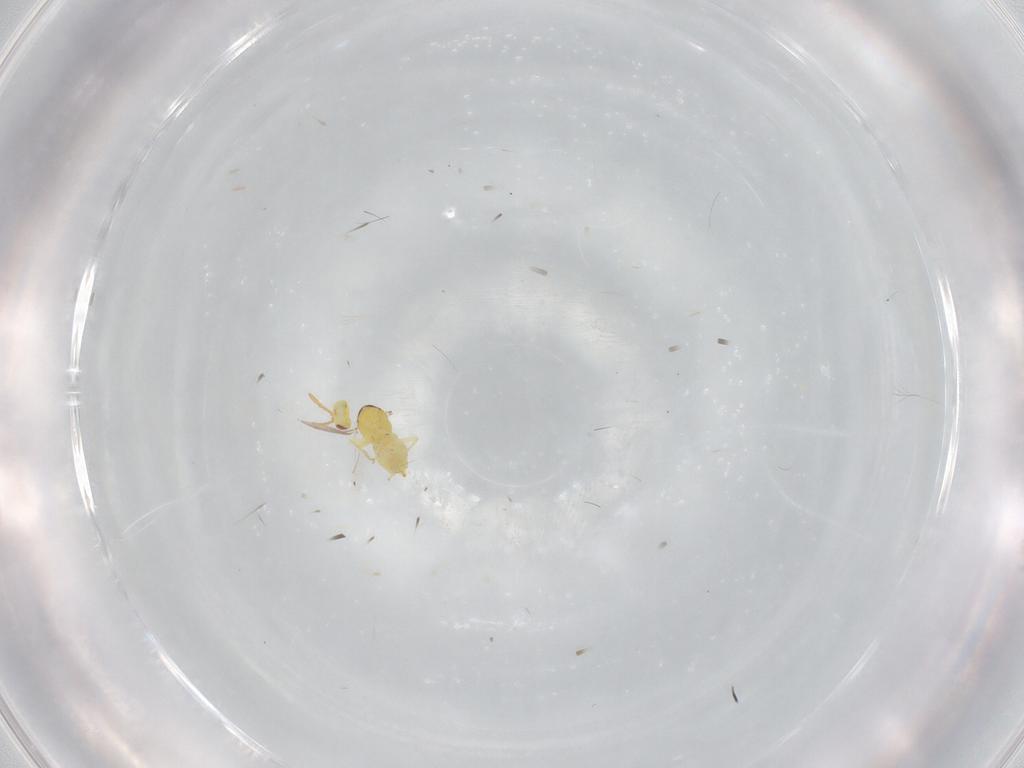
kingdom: Animalia
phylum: Arthropoda
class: Insecta
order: Hymenoptera
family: Aphelinidae
